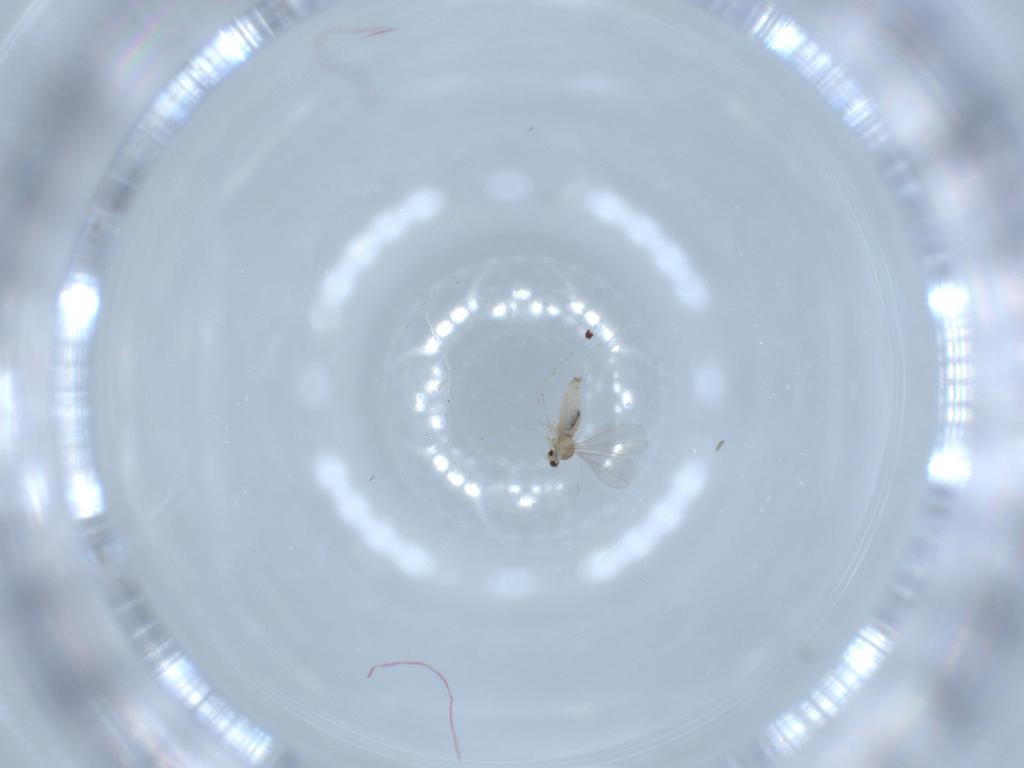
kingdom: Animalia
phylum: Arthropoda
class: Insecta
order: Diptera
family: Cecidomyiidae
